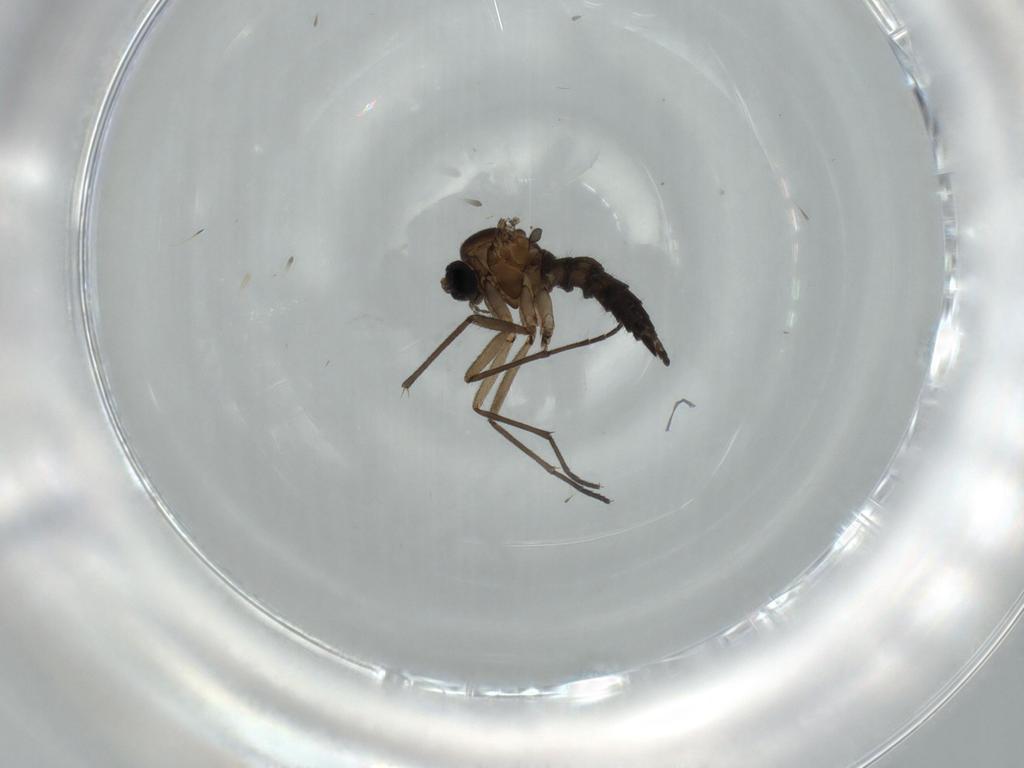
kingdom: Animalia
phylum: Arthropoda
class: Insecta
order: Diptera
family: Sciaridae
